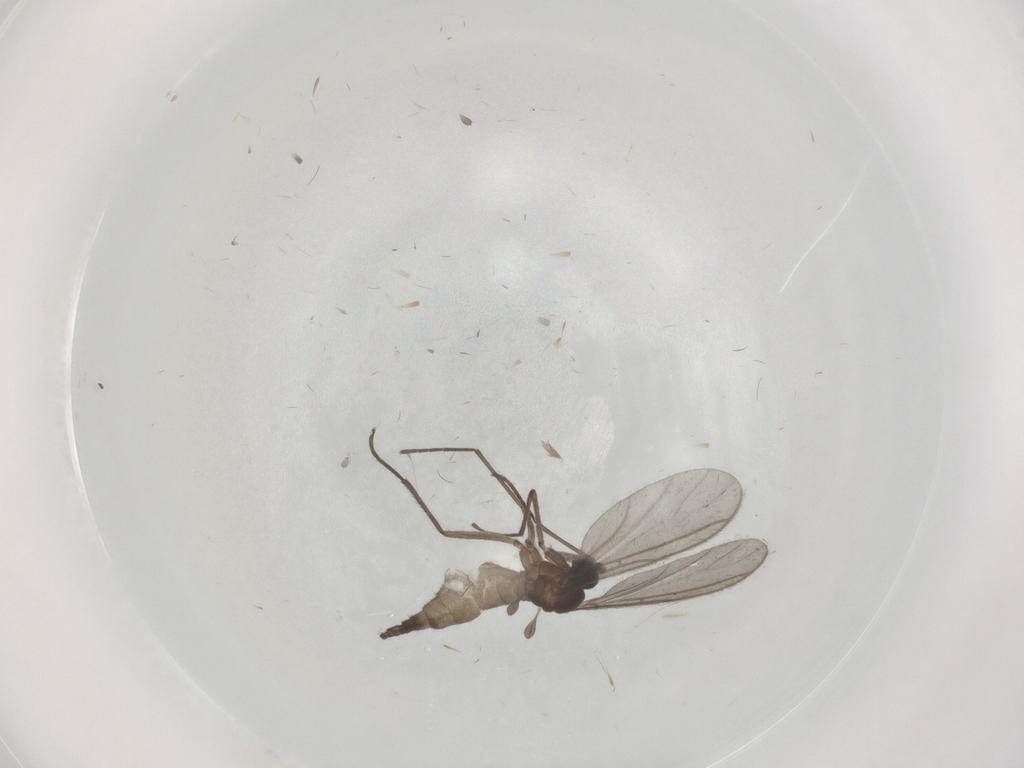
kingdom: Animalia
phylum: Arthropoda
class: Insecta
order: Diptera
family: Sciaridae
